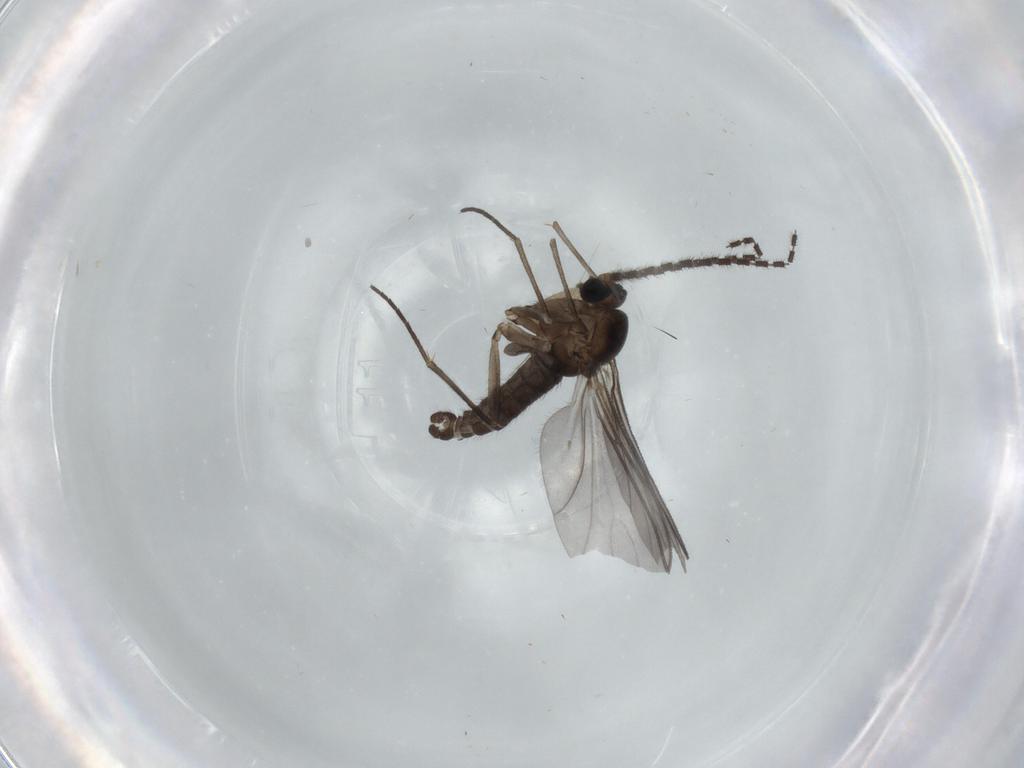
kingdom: Animalia
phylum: Arthropoda
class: Insecta
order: Diptera
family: Sciaridae
